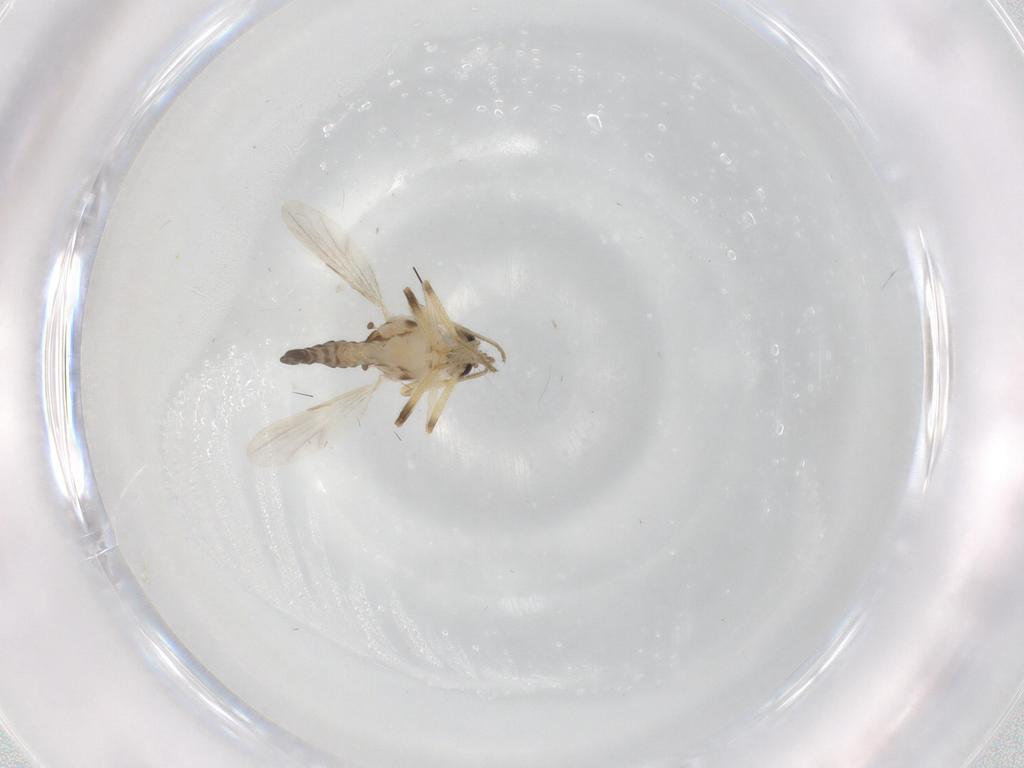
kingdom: Animalia
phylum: Arthropoda
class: Insecta
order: Diptera
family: Ceratopogonidae
